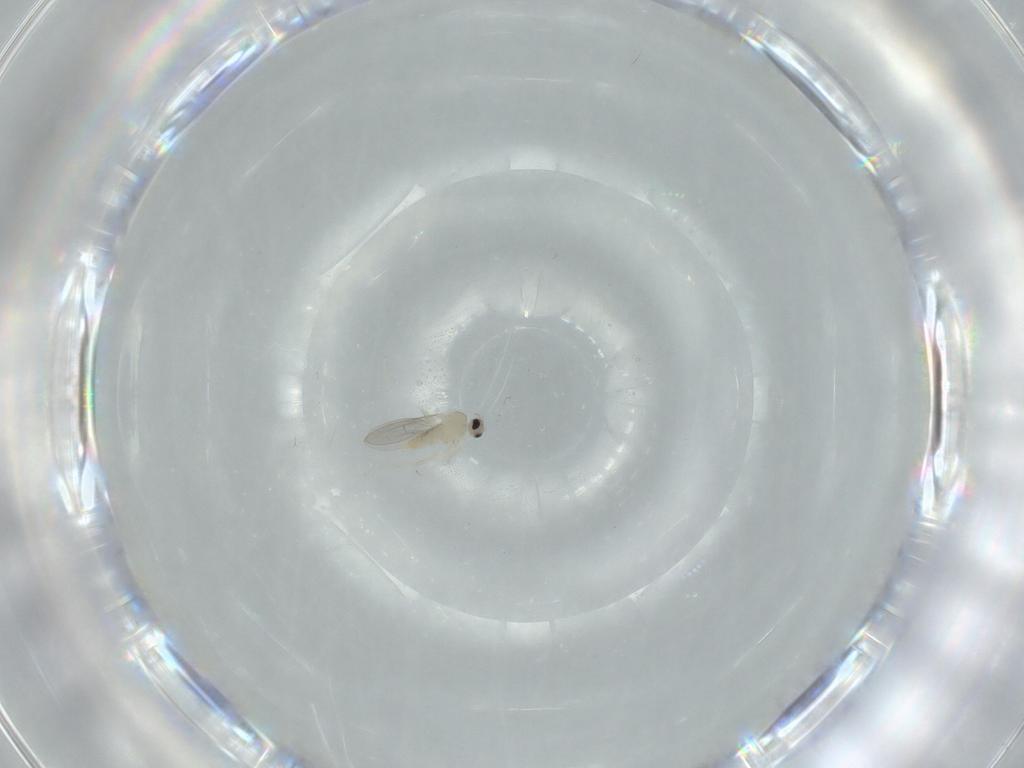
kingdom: Animalia
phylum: Arthropoda
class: Insecta
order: Diptera
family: Cecidomyiidae
